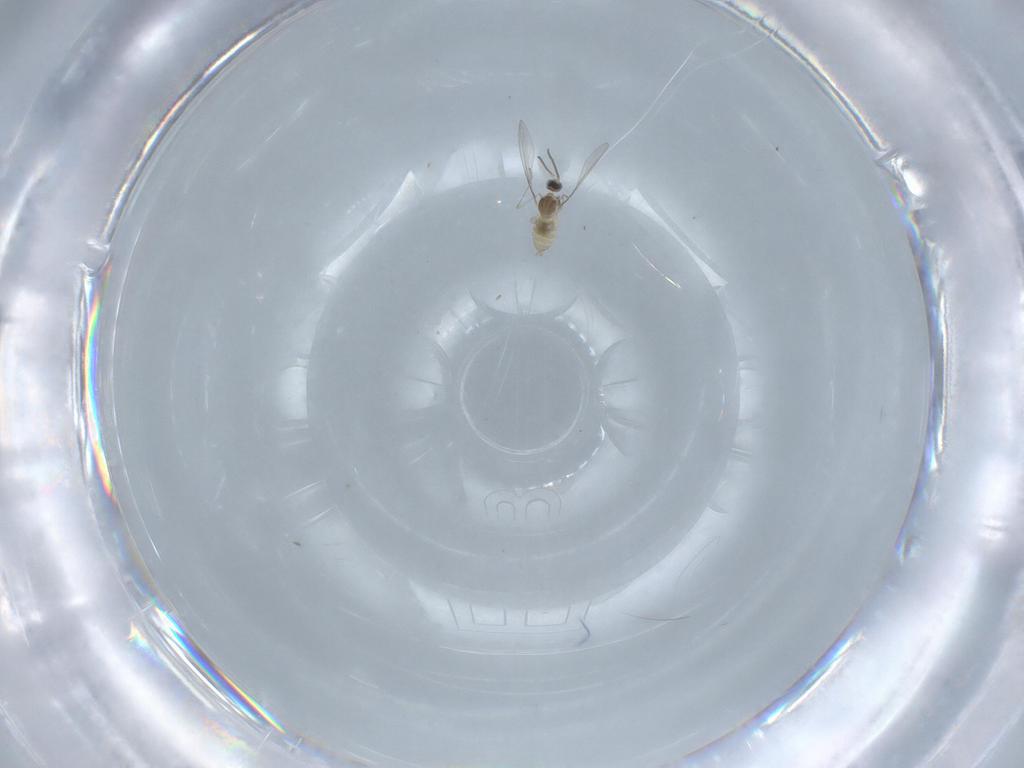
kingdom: Animalia
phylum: Arthropoda
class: Insecta
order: Diptera
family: Cecidomyiidae
